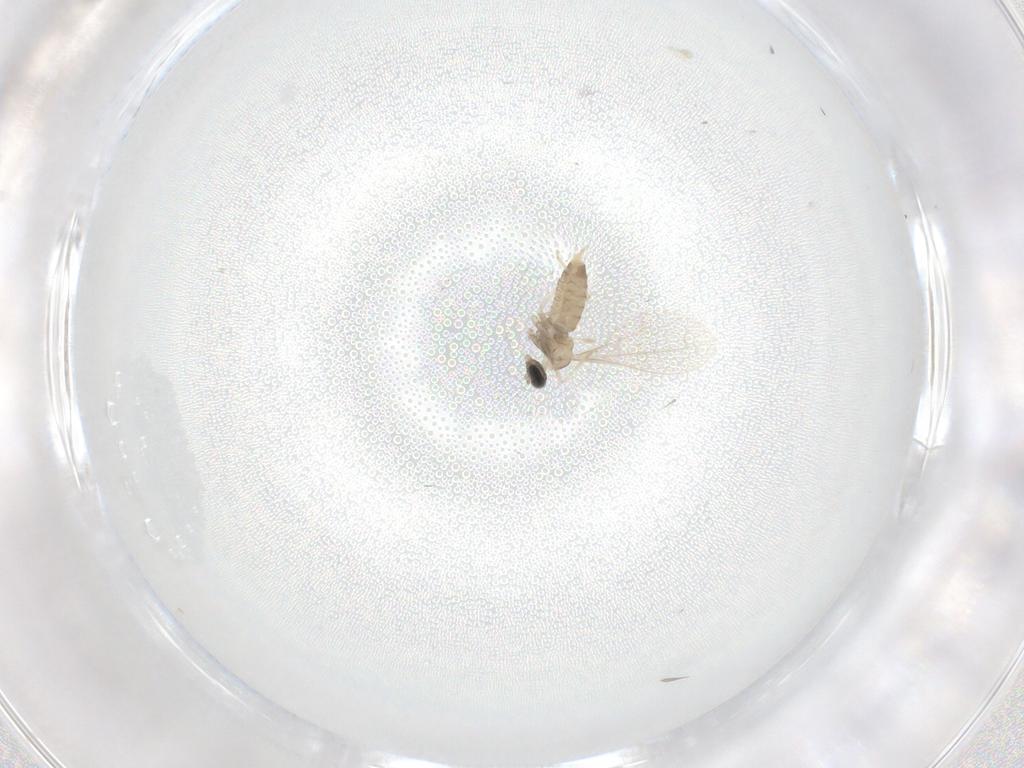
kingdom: Animalia
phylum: Arthropoda
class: Insecta
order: Diptera
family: Cecidomyiidae
